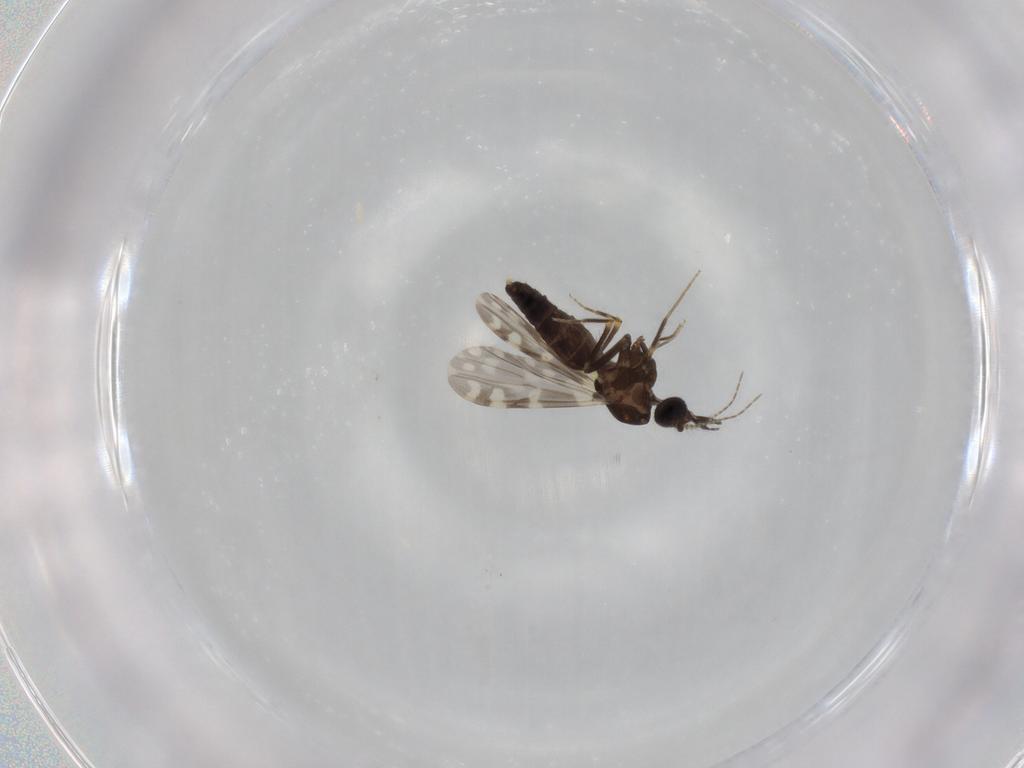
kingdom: Animalia
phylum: Arthropoda
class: Insecta
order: Diptera
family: Ceratopogonidae
